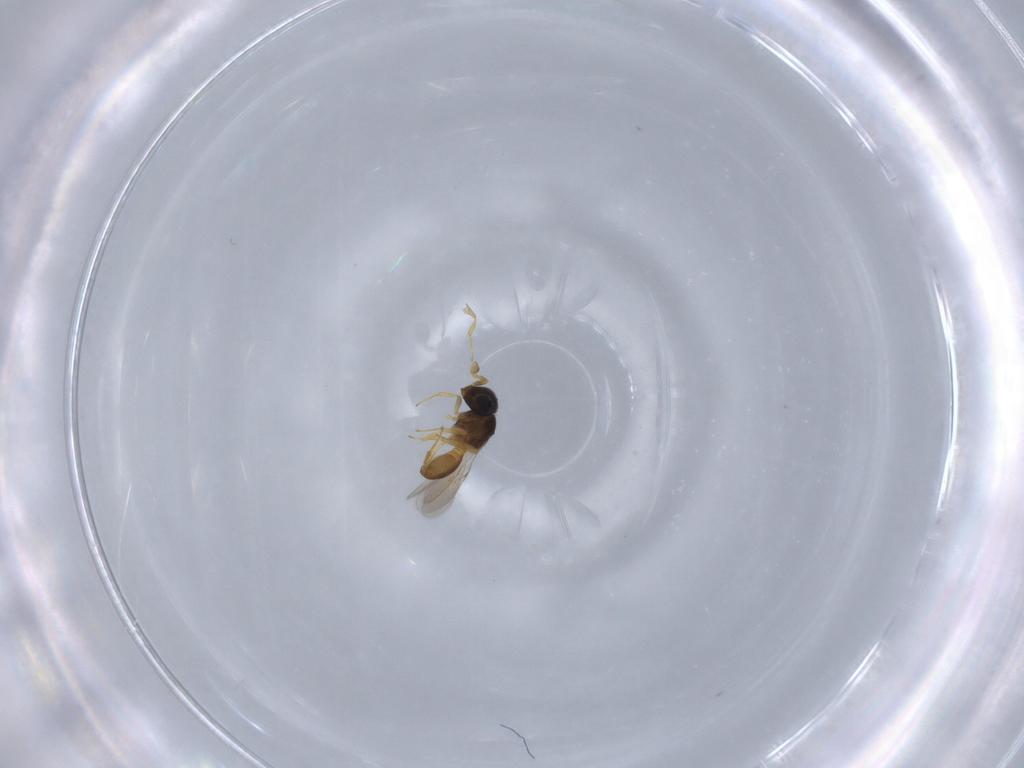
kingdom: Animalia
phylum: Arthropoda
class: Insecta
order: Hymenoptera
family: Scelionidae
